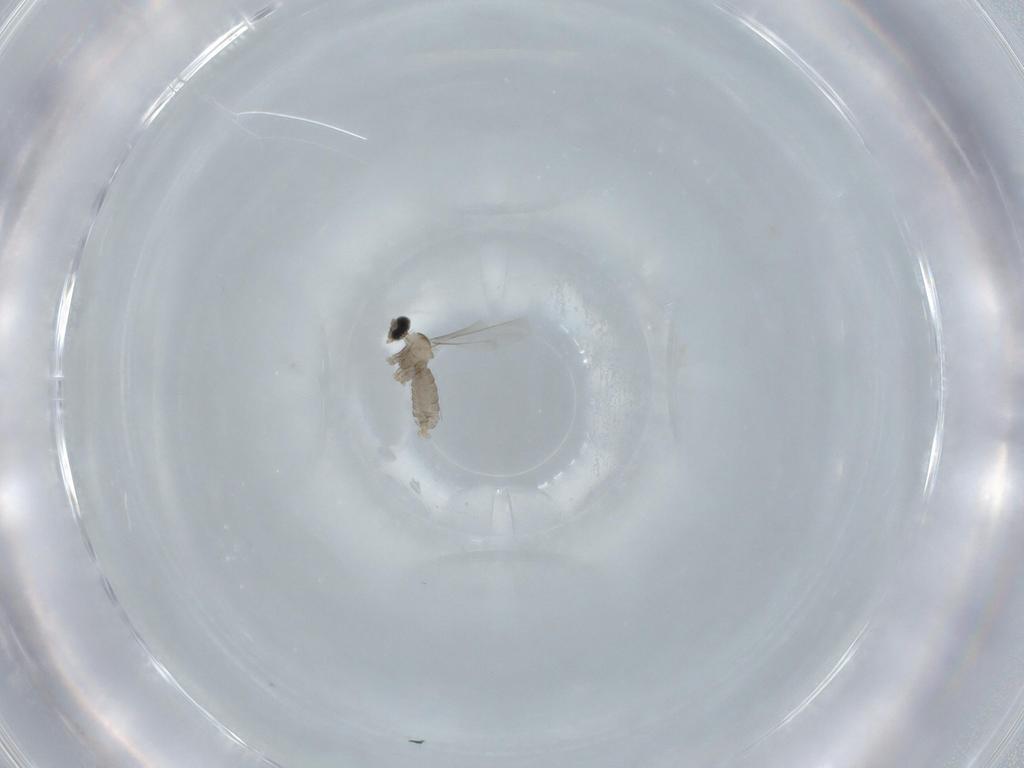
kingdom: Animalia
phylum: Arthropoda
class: Insecta
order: Diptera
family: Cecidomyiidae
